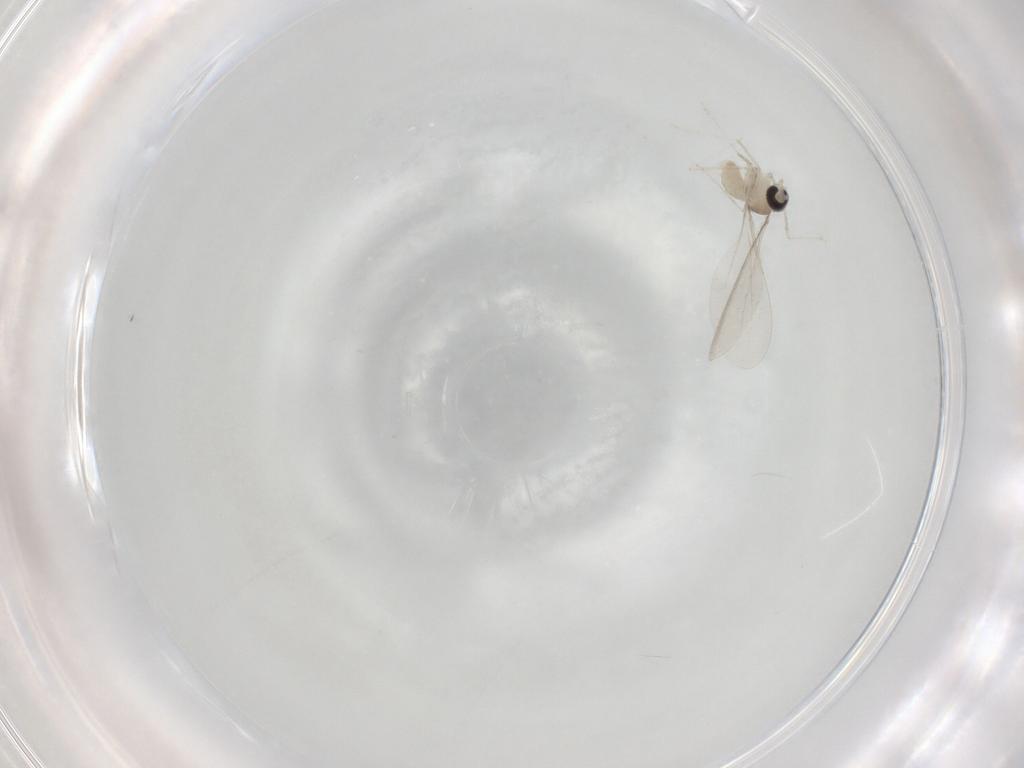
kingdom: Animalia
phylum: Arthropoda
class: Insecta
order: Diptera
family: Cecidomyiidae
